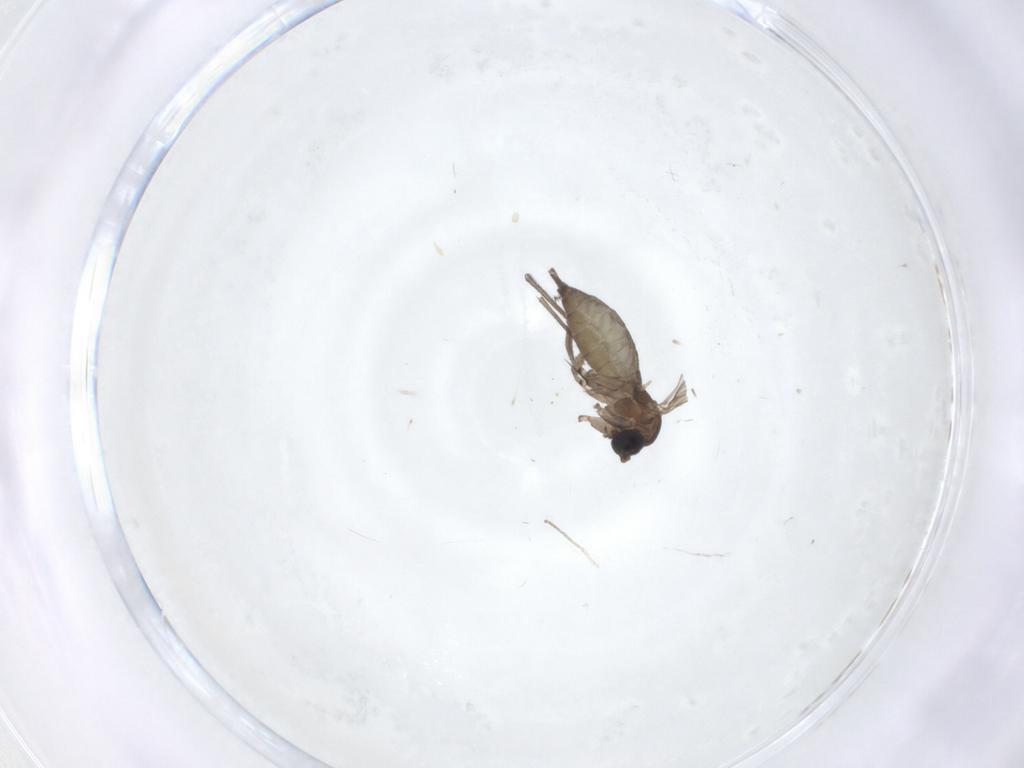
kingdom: Animalia
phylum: Arthropoda
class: Insecta
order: Diptera
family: Sciaridae
